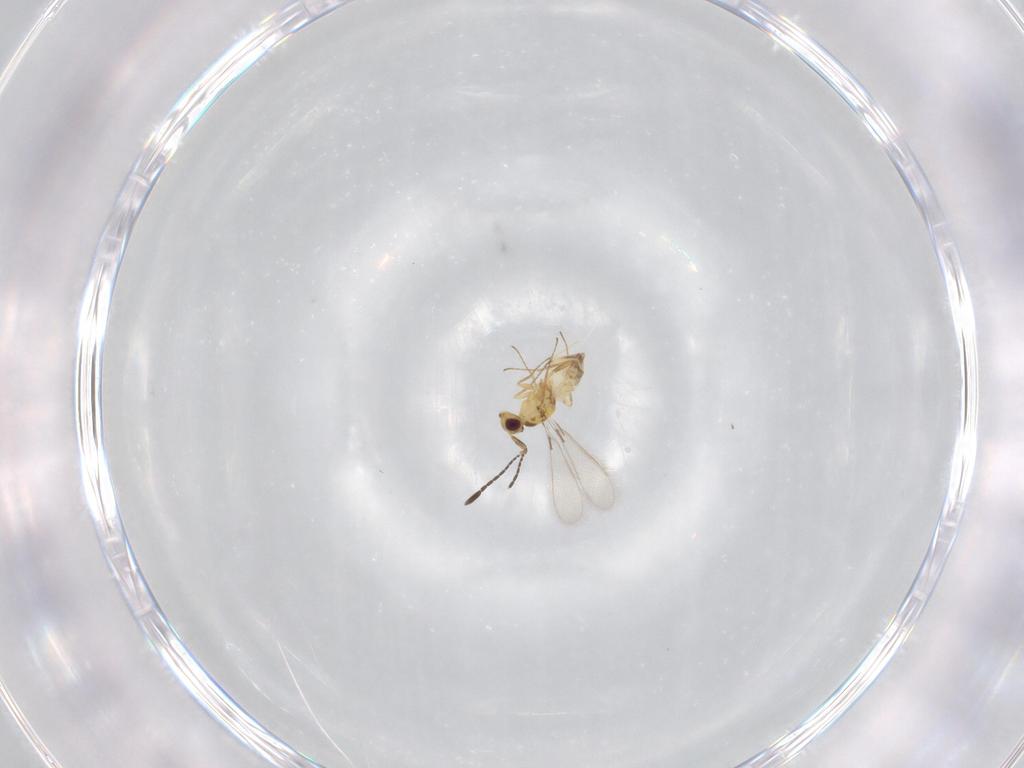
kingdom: Animalia
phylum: Arthropoda
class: Insecta
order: Hymenoptera
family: Mymaridae
